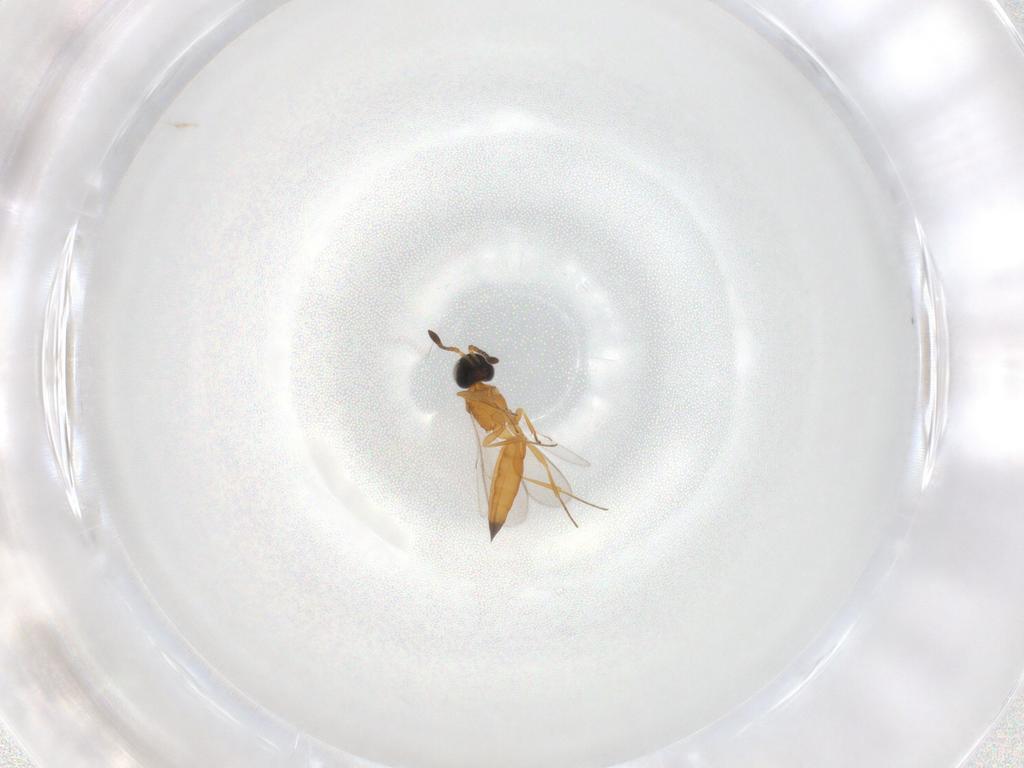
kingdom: Animalia
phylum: Arthropoda
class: Insecta
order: Hymenoptera
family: Scelionidae
